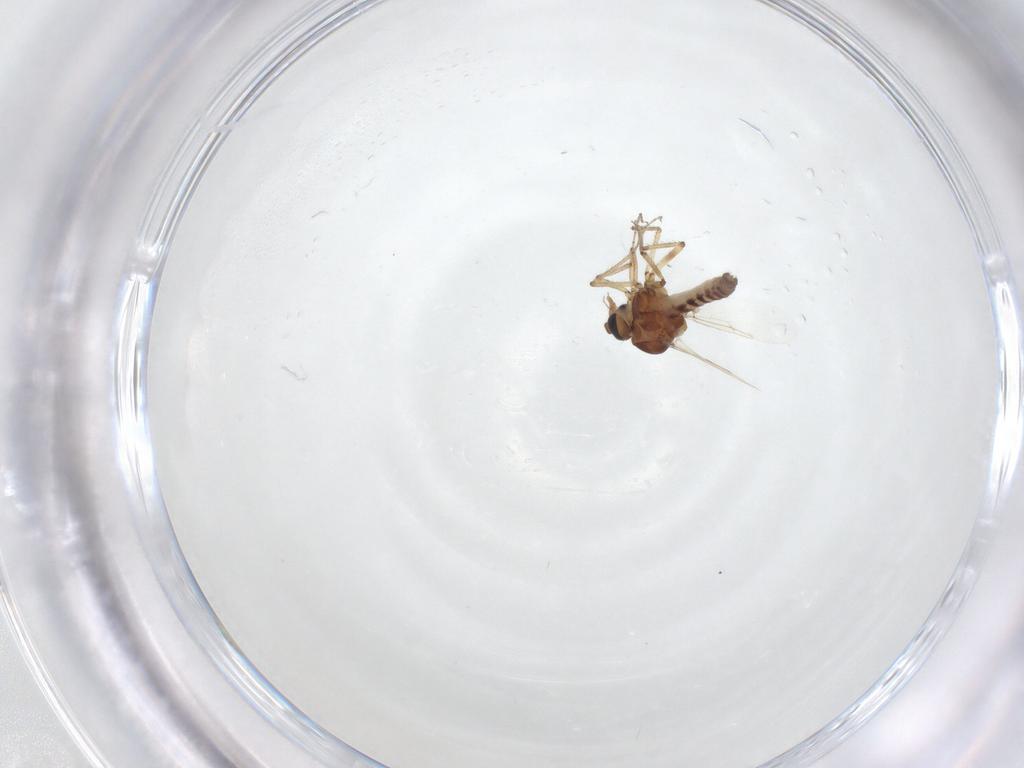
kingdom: Animalia
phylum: Arthropoda
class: Insecta
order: Diptera
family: Ceratopogonidae
